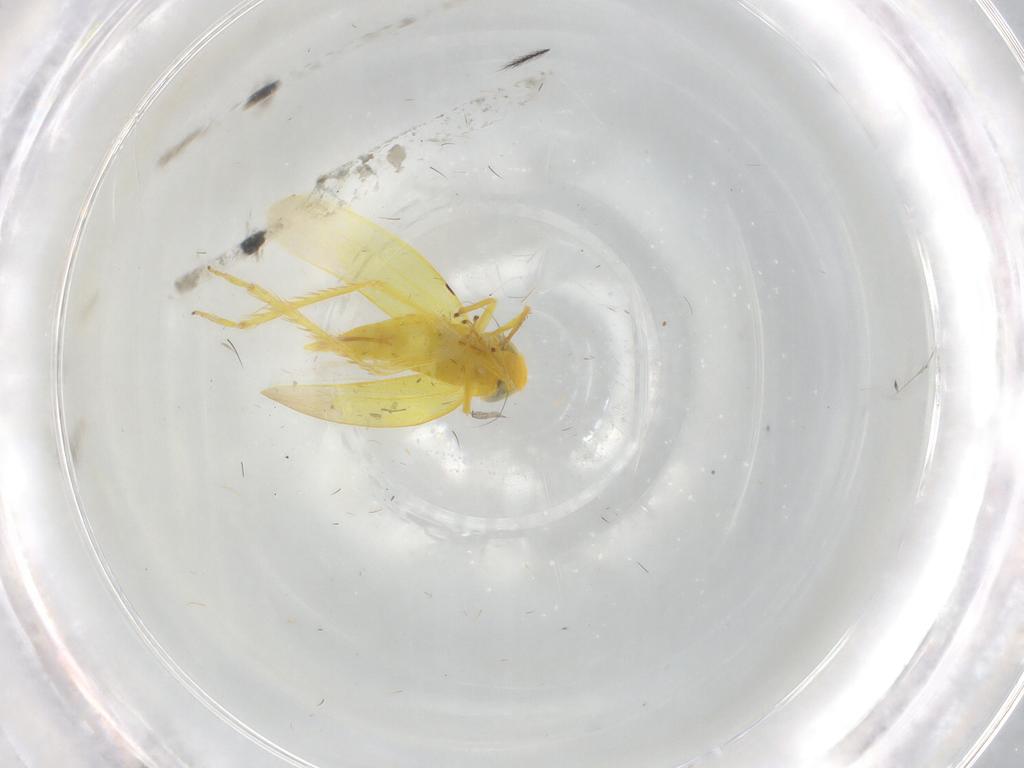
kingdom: Animalia
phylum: Arthropoda
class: Insecta
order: Hemiptera
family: Cicadellidae
